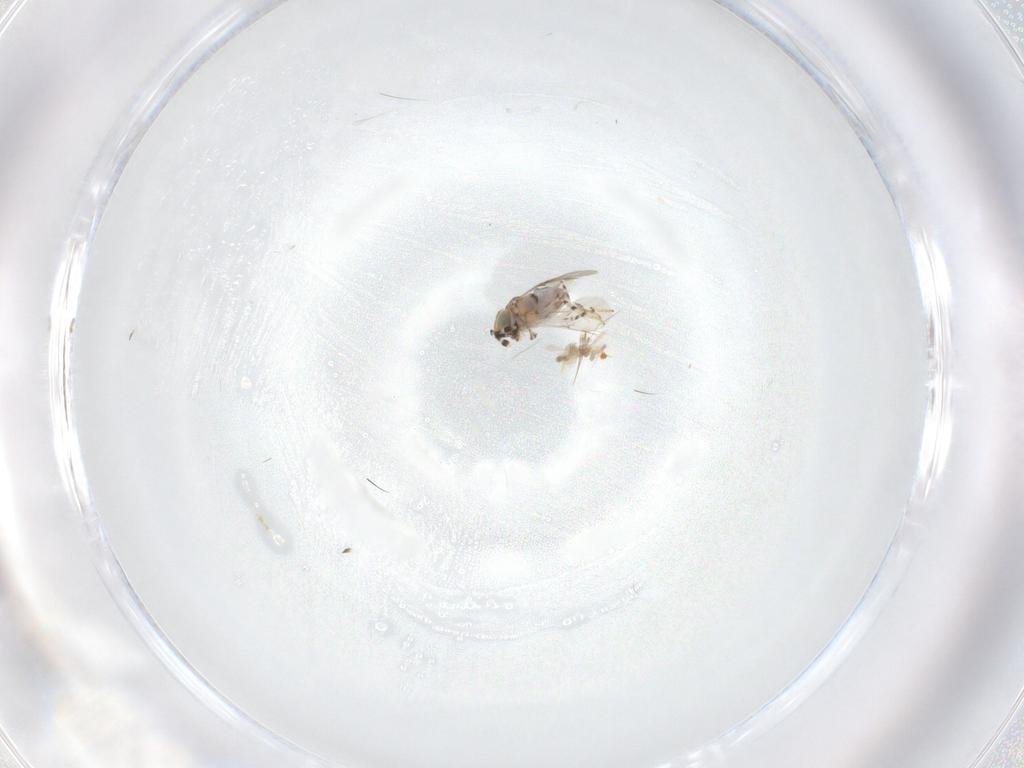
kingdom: Animalia
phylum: Arthropoda
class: Insecta
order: Hymenoptera
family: Encyrtidae
